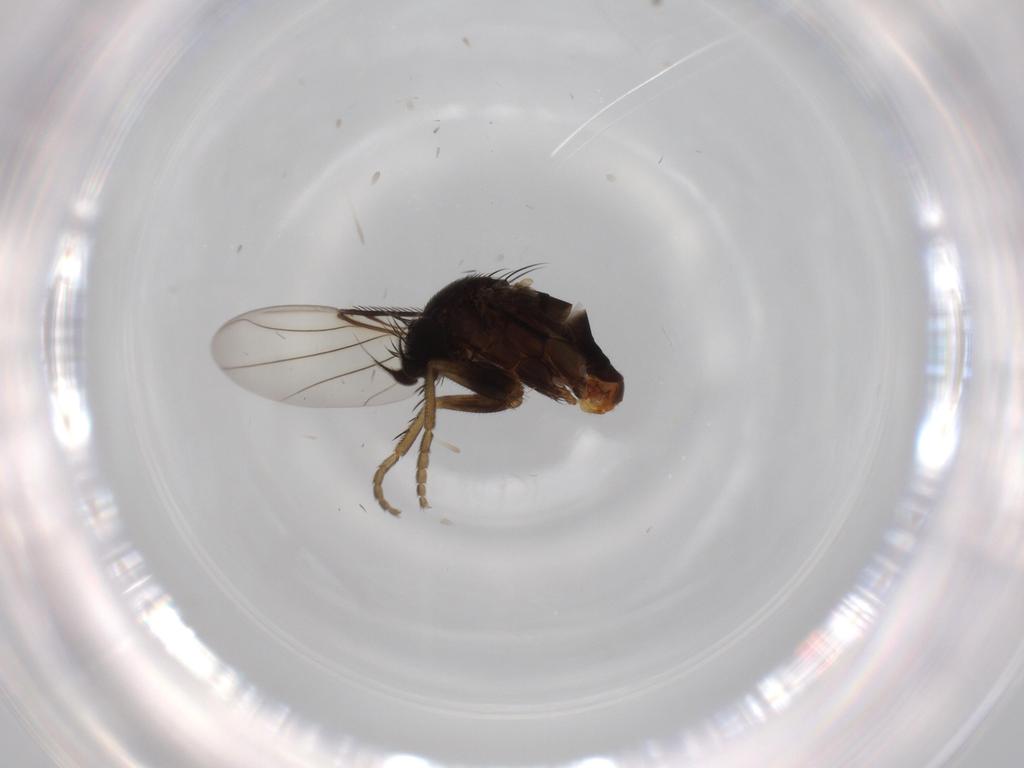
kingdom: Animalia
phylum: Arthropoda
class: Insecta
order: Diptera
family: Phoridae
